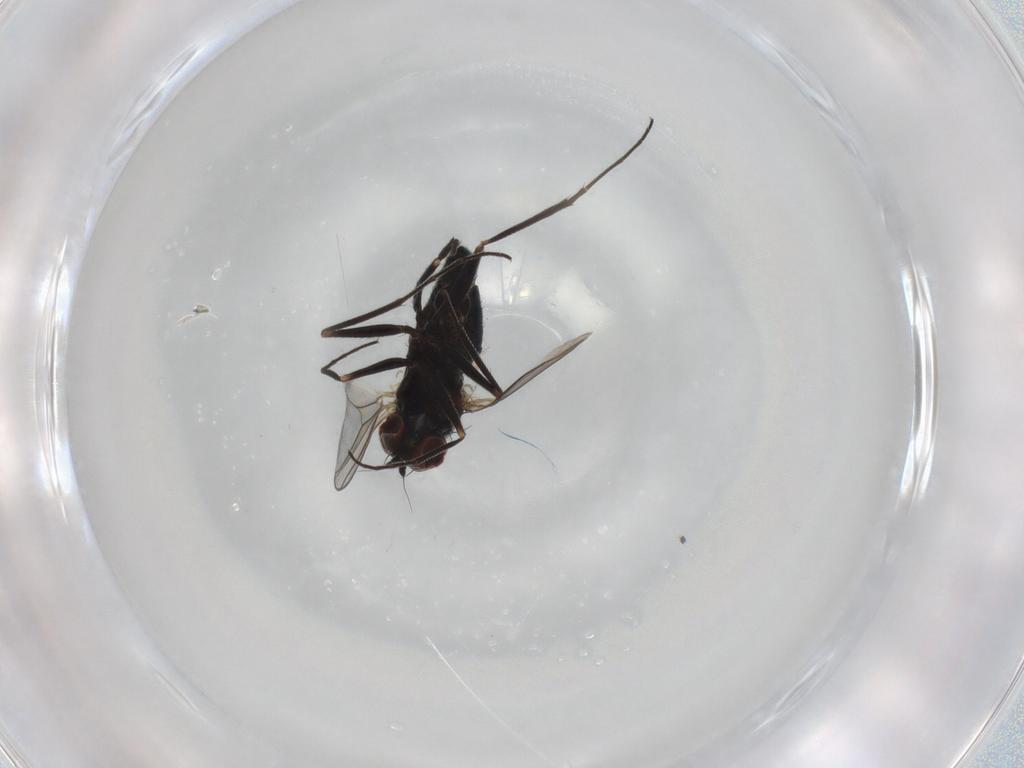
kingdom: Animalia
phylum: Arthropoda
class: Insecta
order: Diptera
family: Dolichopodidae
